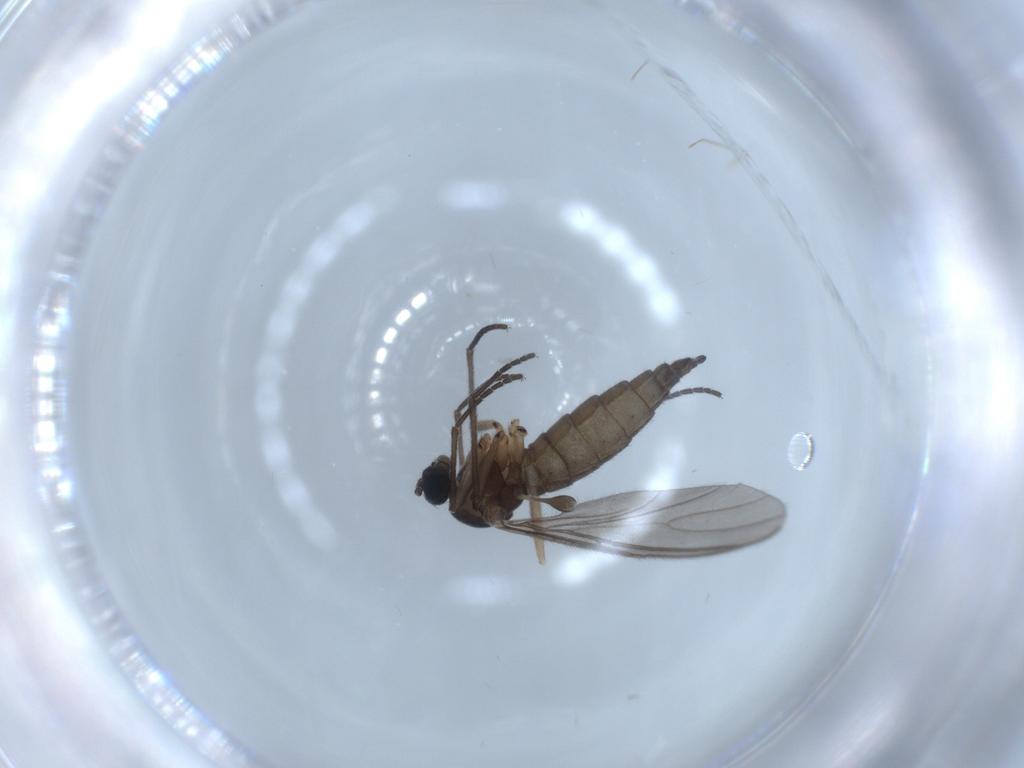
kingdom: Animalia
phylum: Arthropoda
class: Insecta
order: Diptera
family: Sciaridae
